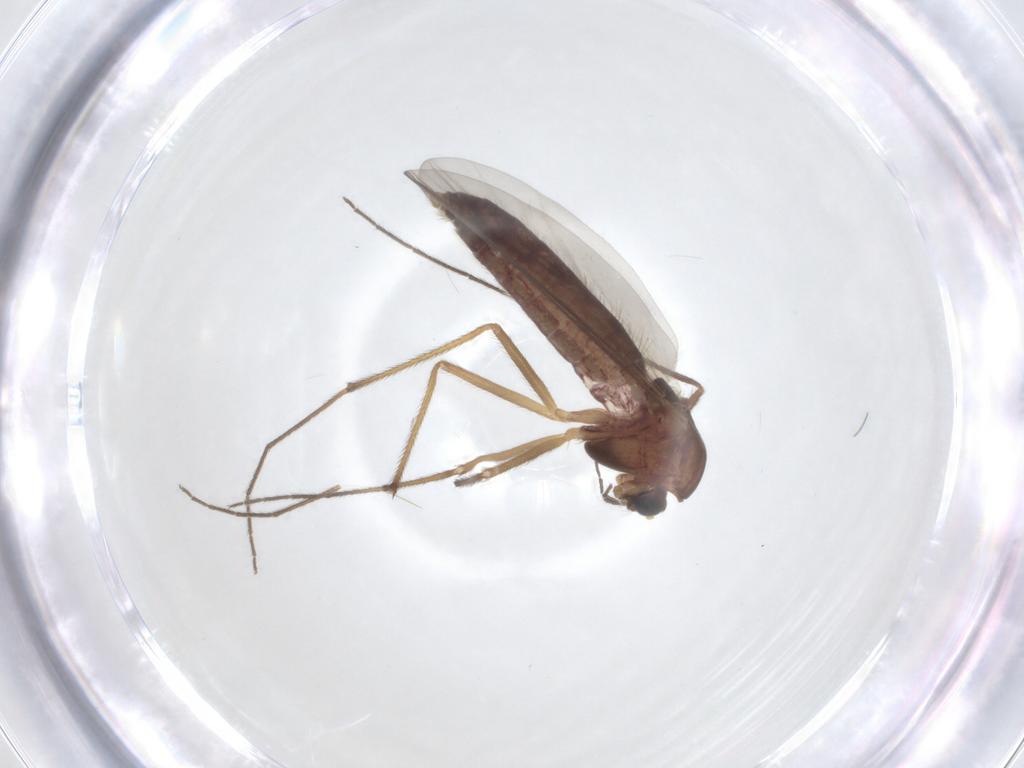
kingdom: Animalia
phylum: Arthropoda
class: Insecta
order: Diptera
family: Chironomidae
